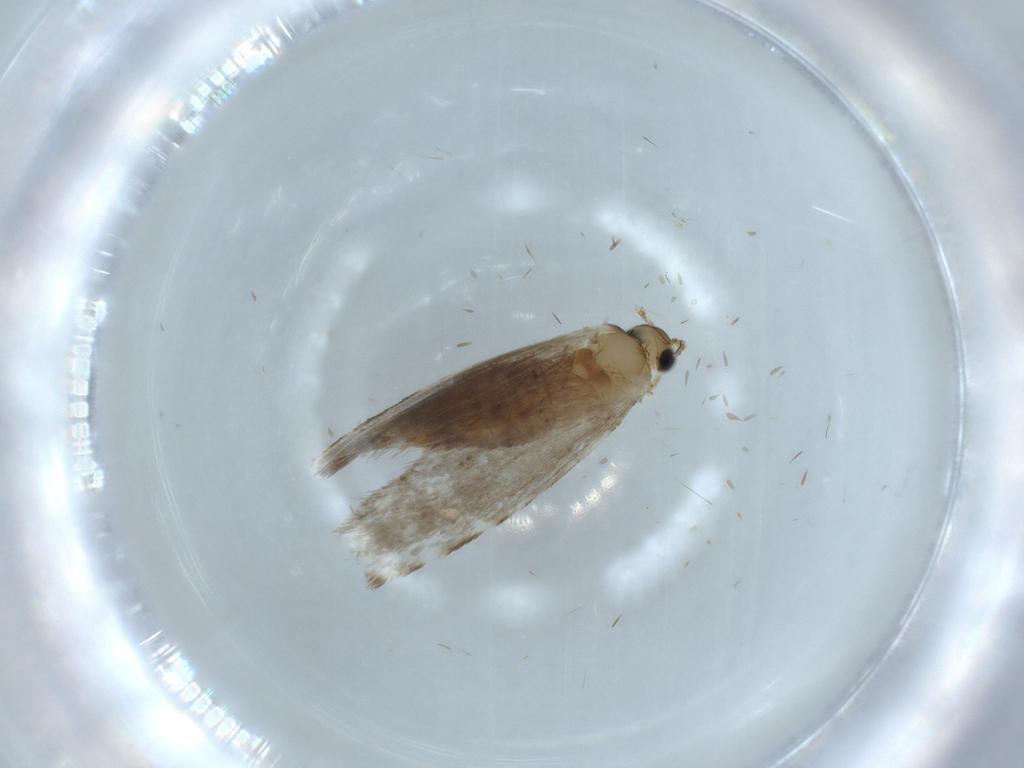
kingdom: Animalia
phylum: Arthropoda
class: Insecta
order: Lepidoptera
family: Tineidae
